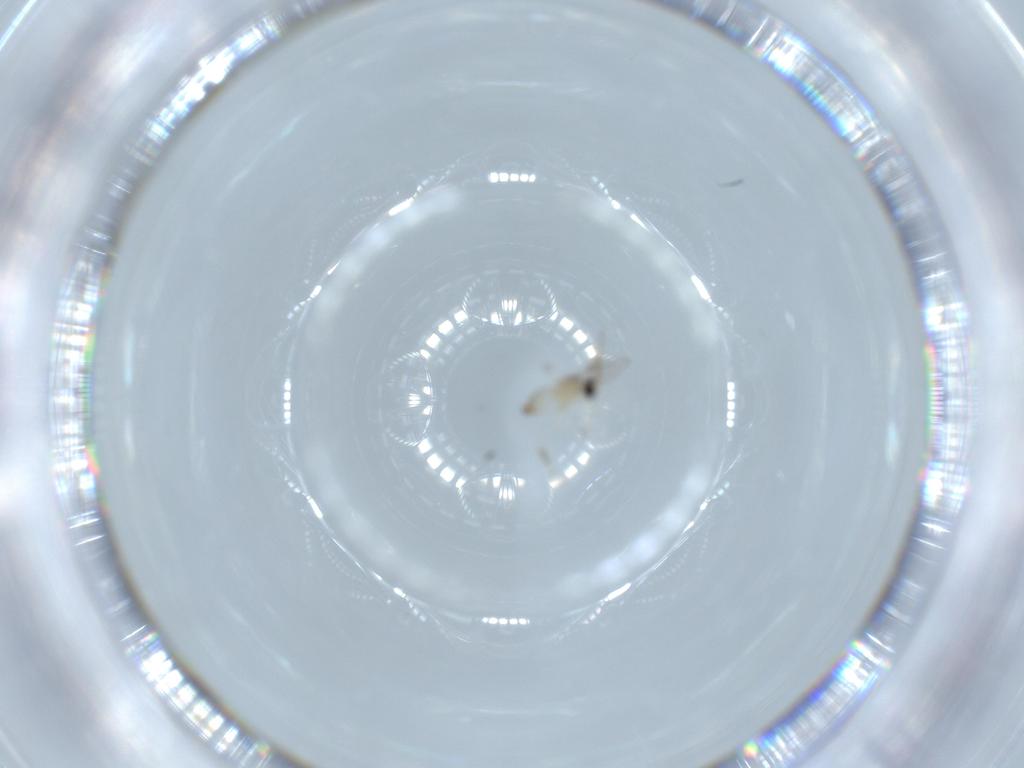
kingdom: Animalia
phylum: Arthropoda
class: Insecta
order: Diptera
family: Cecidomyiidae
